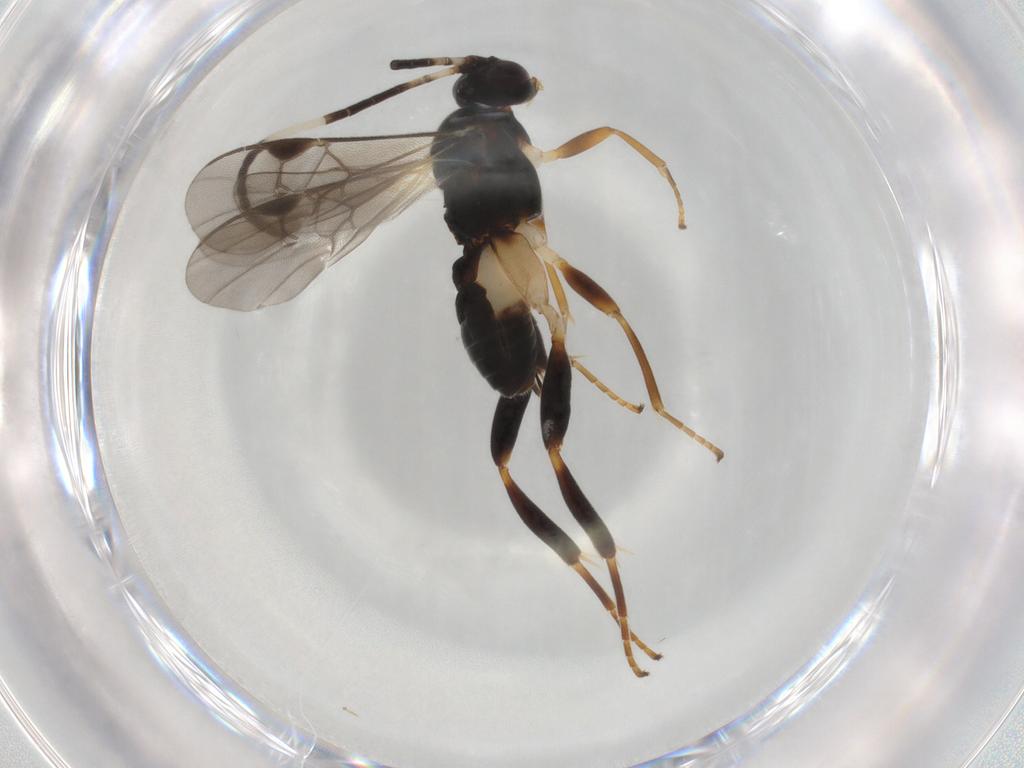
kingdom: Animalia
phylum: Arthropoda
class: Insecta
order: Hymenoptera
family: Braconidae
